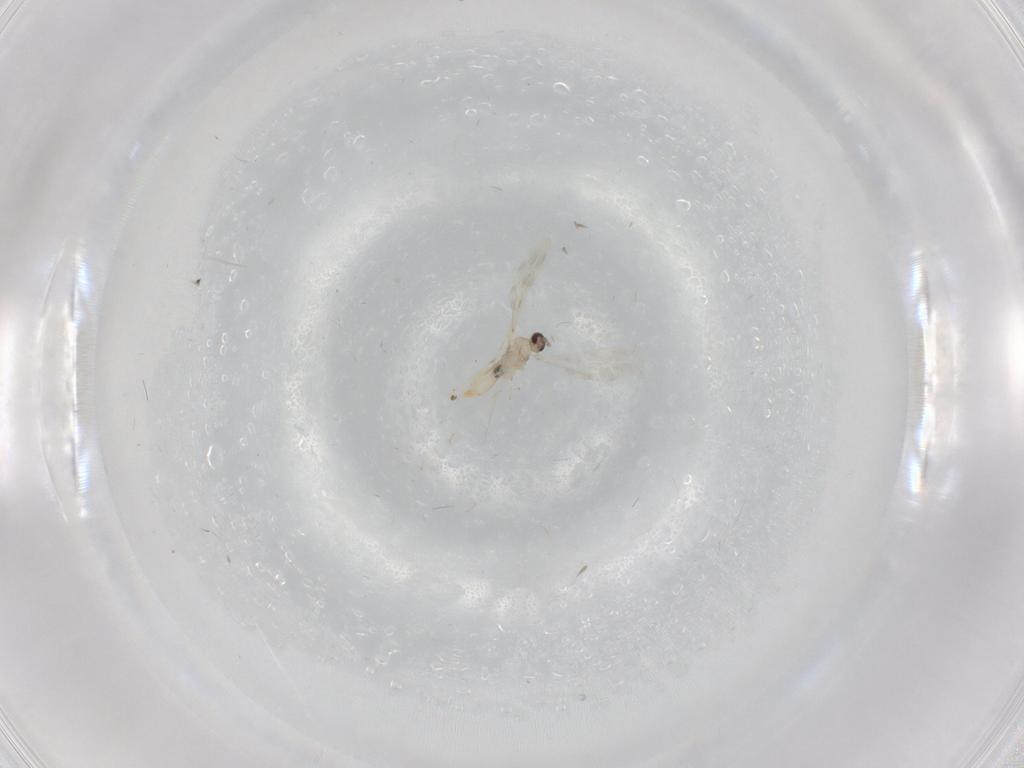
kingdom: Animalia
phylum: Arthropoda
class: Insecta
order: Diptera
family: Cecidomyiidae
